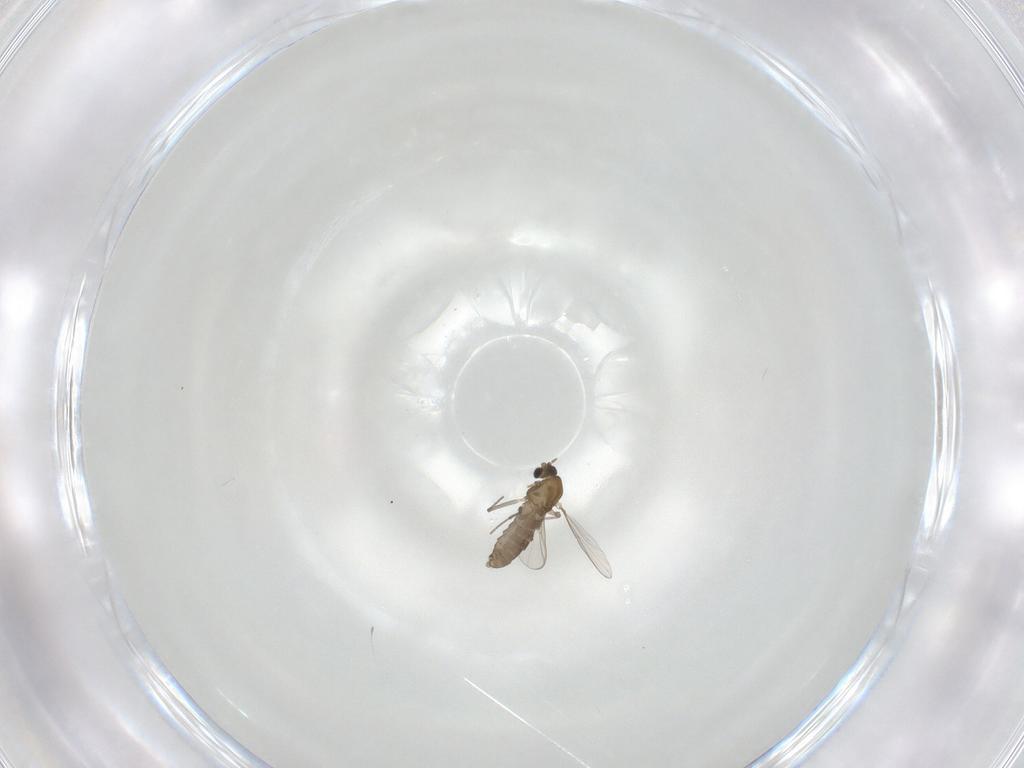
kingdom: Animalia
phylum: Arthropoda
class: Insecta
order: Diptera
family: Chironomidae
